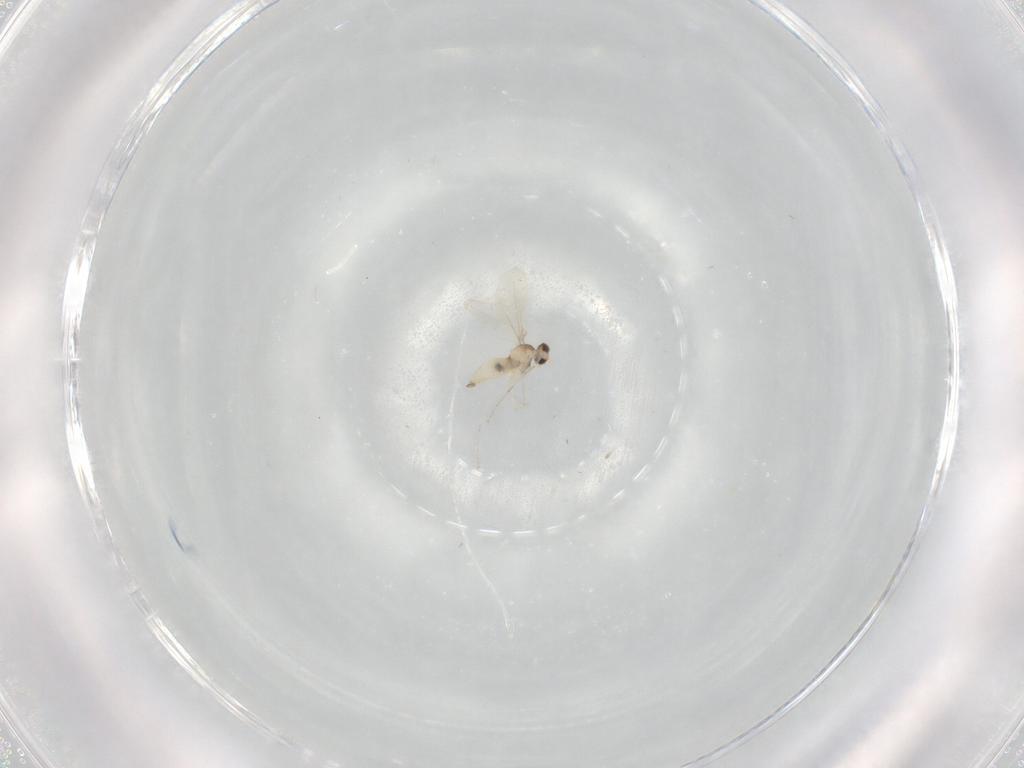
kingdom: Animalia
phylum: Arthropoda
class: Insecta
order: Diptera
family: Cecidomyiidae
